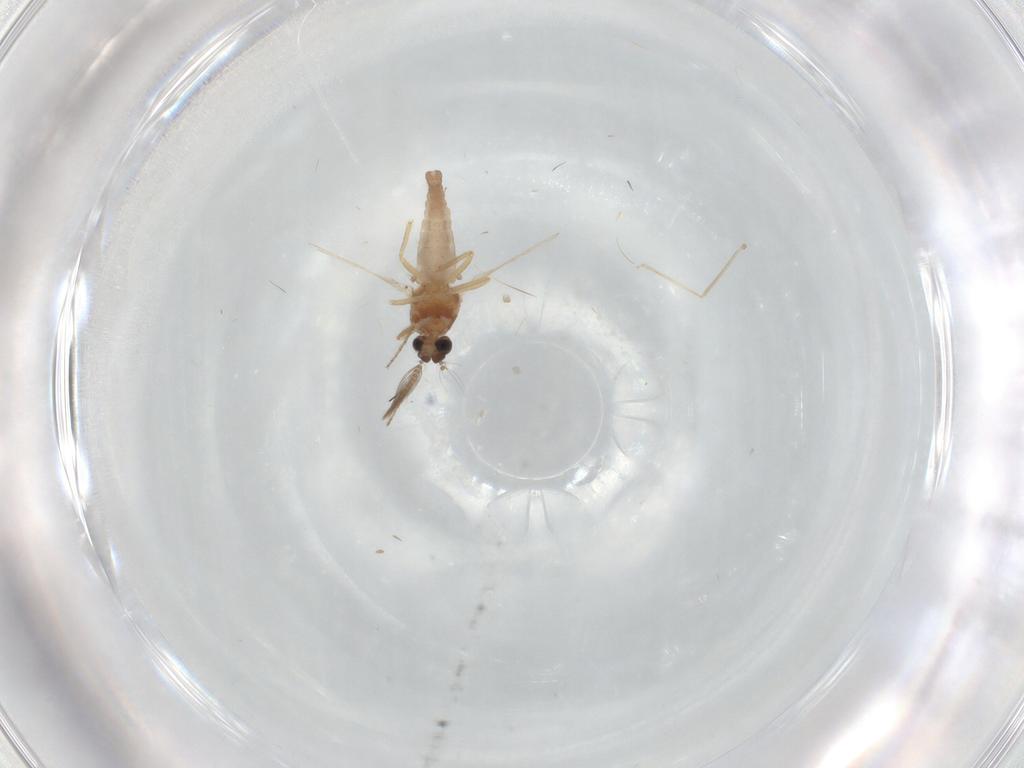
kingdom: Animalia
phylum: Arthropoda
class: Insecta
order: Diptera
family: Ceratopogonidae
